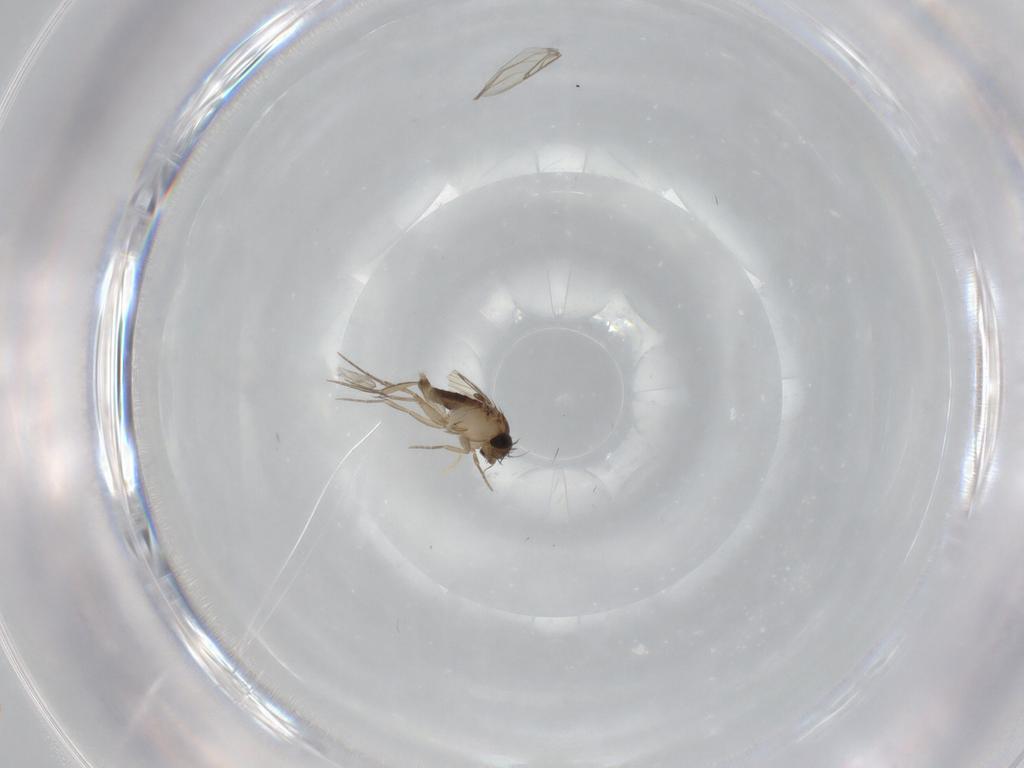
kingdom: Animalia
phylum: Arthropoda
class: Insecta
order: Diptera
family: Phoridae
